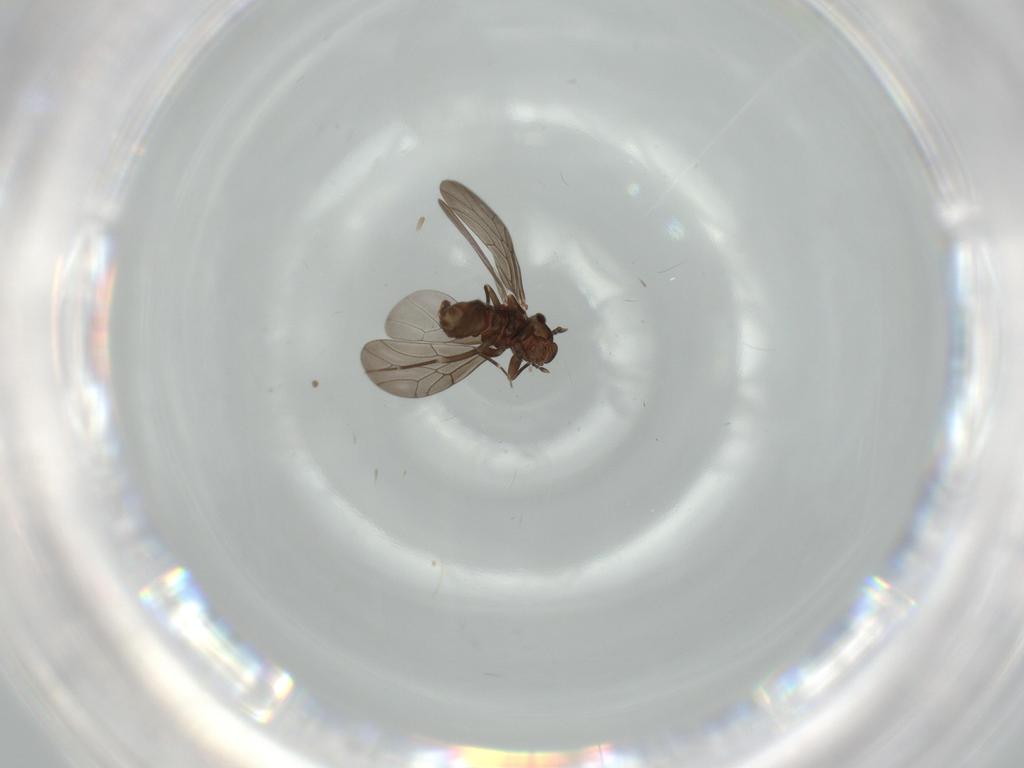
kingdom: Animalia
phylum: Arthropoda
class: Insecta
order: Psocodea
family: Lepidopsocidae
